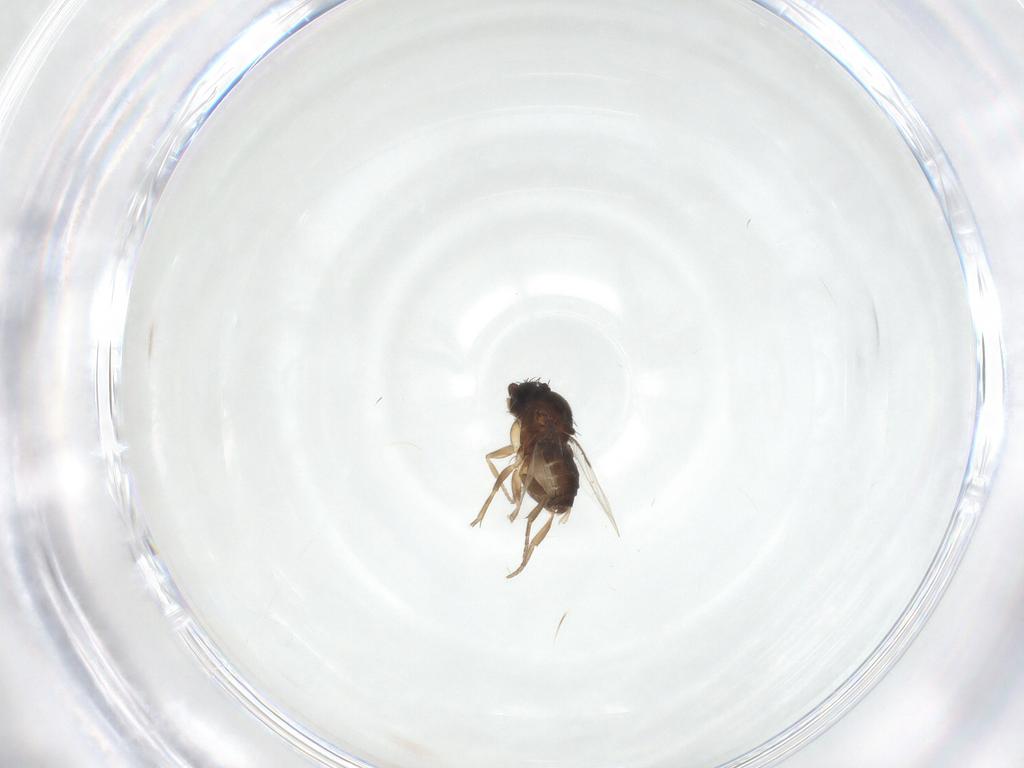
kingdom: Animalia
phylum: Arthropoda
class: Insecta
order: Diptera
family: Phoridae
